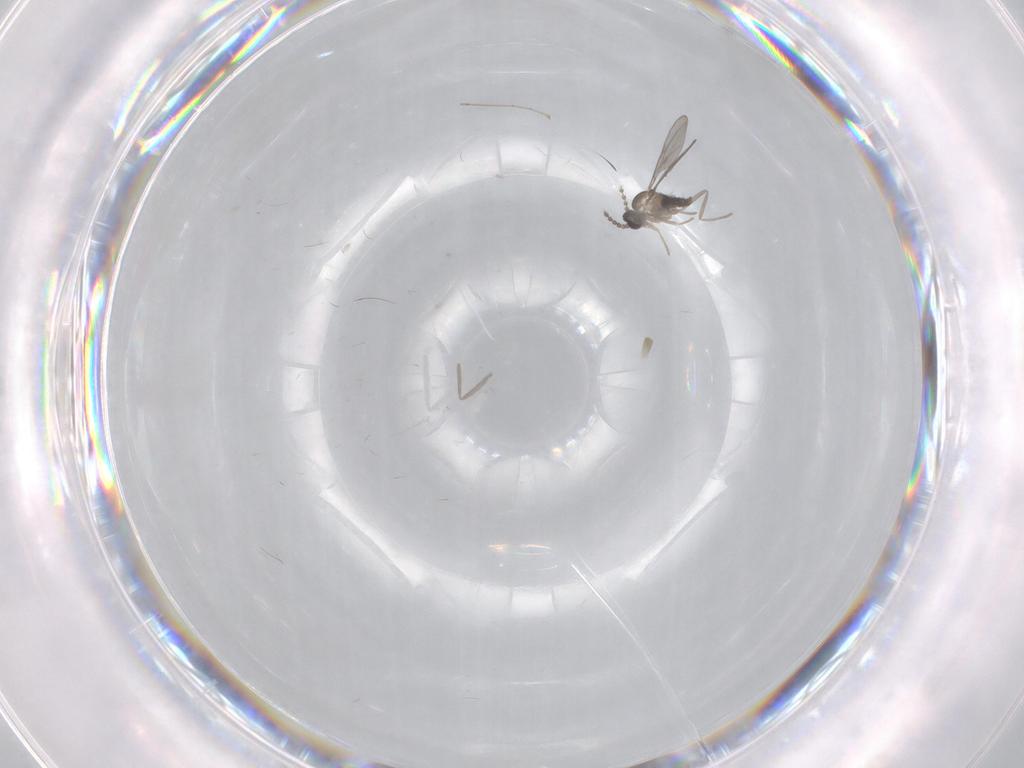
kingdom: Animalia
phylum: Arthropoda
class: Insecta
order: Diptera
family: Cecidomyiidae
